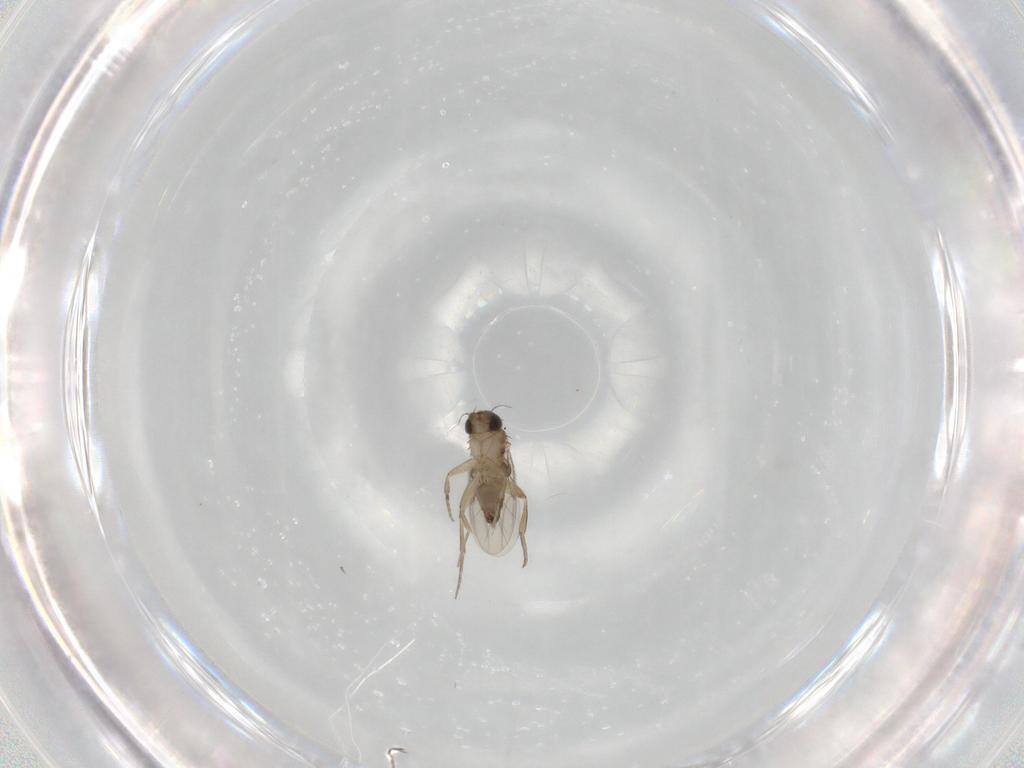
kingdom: Animalia
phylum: Arthropoda
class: Insecta
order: Diptera
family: Phoridae
